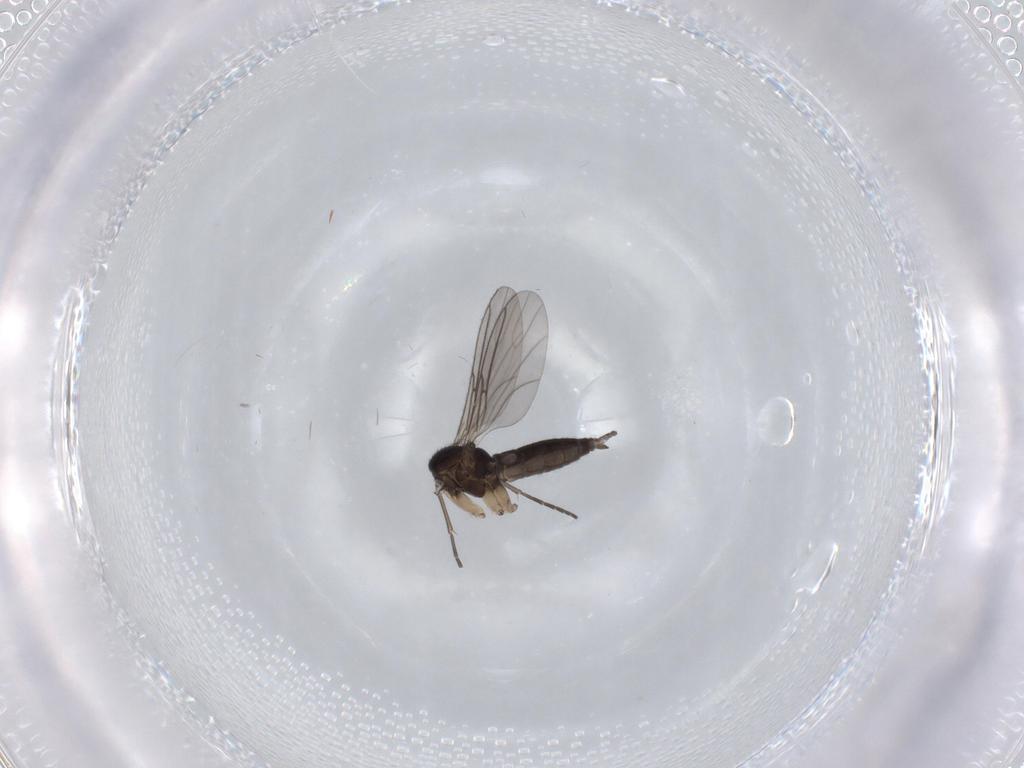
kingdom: Animalia
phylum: Arthropoda
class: Insecta
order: Diptera
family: Sciaridae
